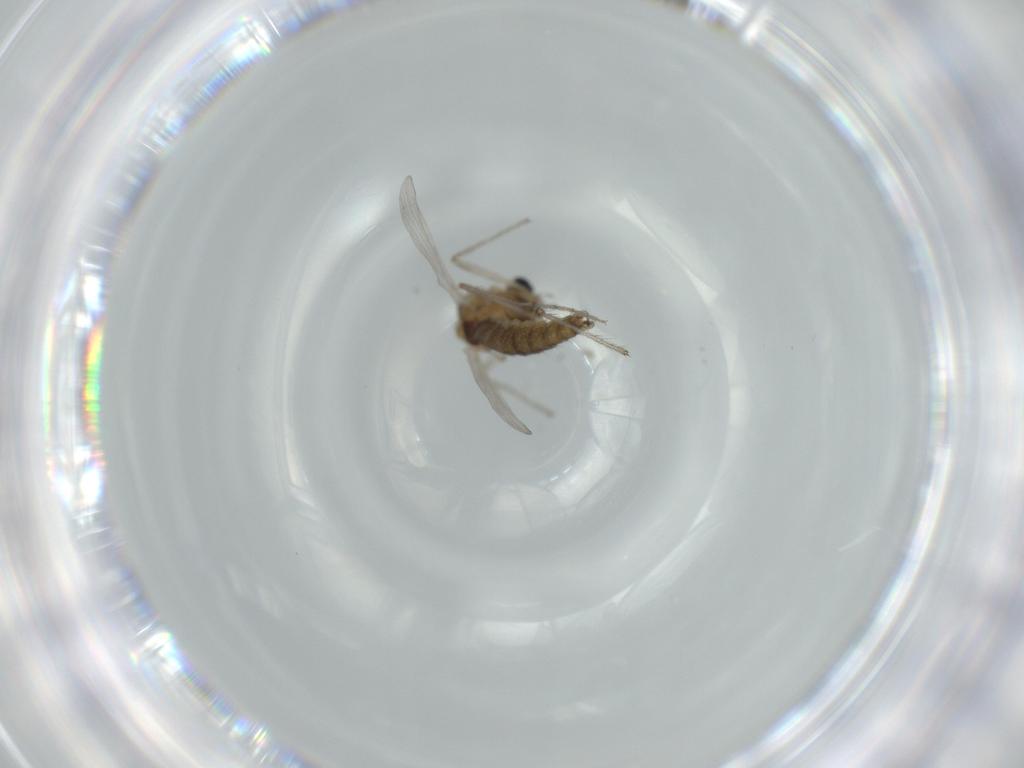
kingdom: Animalia
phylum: Arthropoda
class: Insecta
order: Diptera
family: Chironomidae
